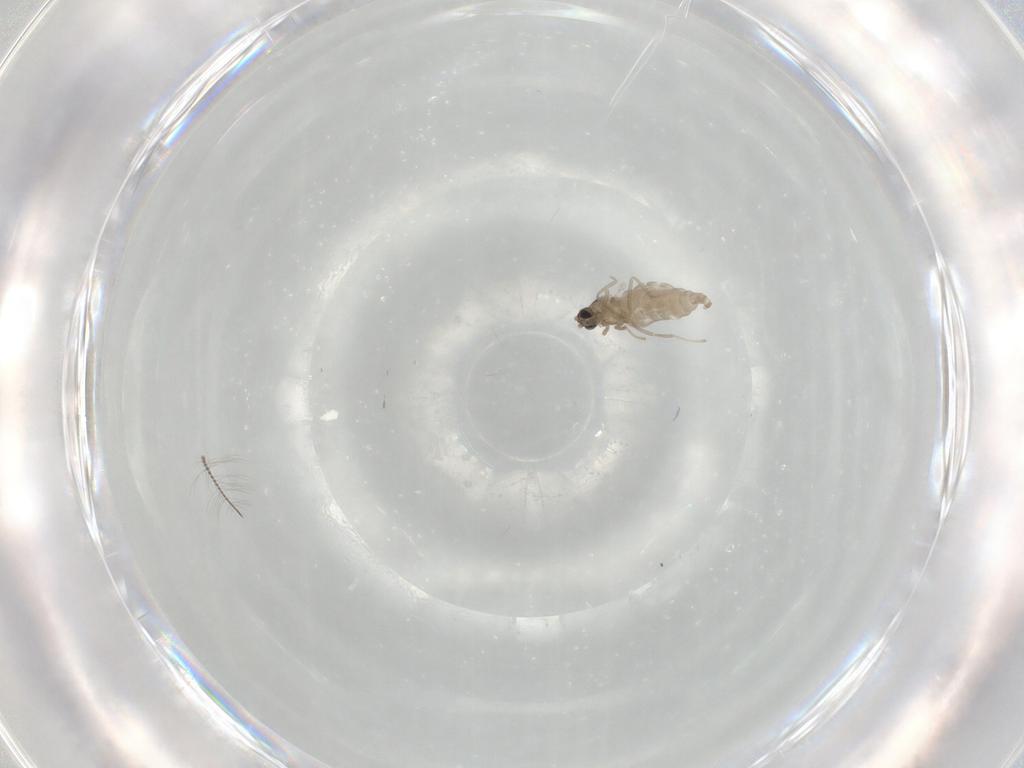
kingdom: Animalia
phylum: Arthropoda
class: Insecta
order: Diptera
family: Cecidomyiidae
